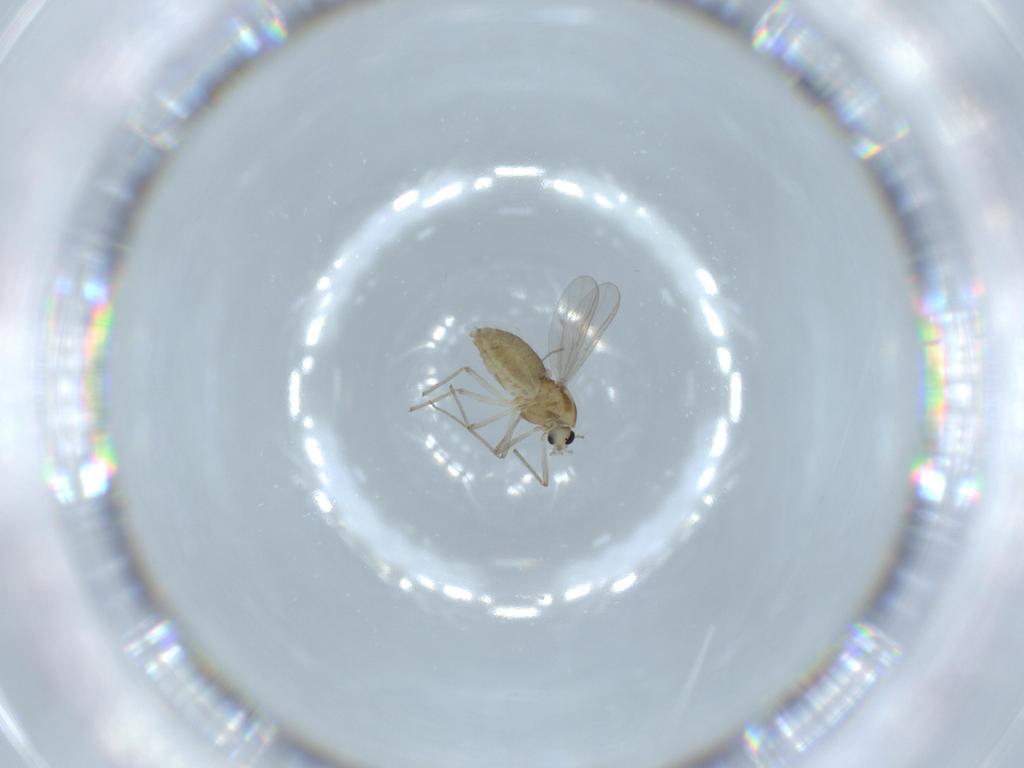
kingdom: Animalia
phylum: Arthropoda
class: Insecta
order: Diptera
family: Chironomidae
